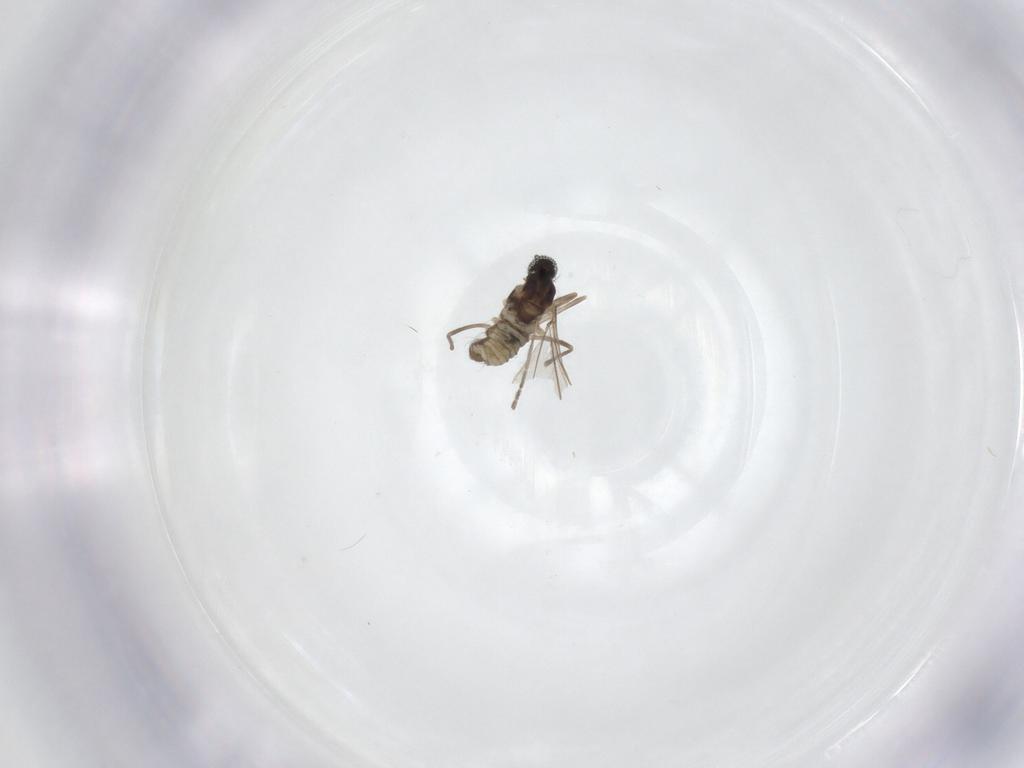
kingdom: Animalia
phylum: Arthropoda
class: Insecta
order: Diptera
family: Cecidomyiidae
